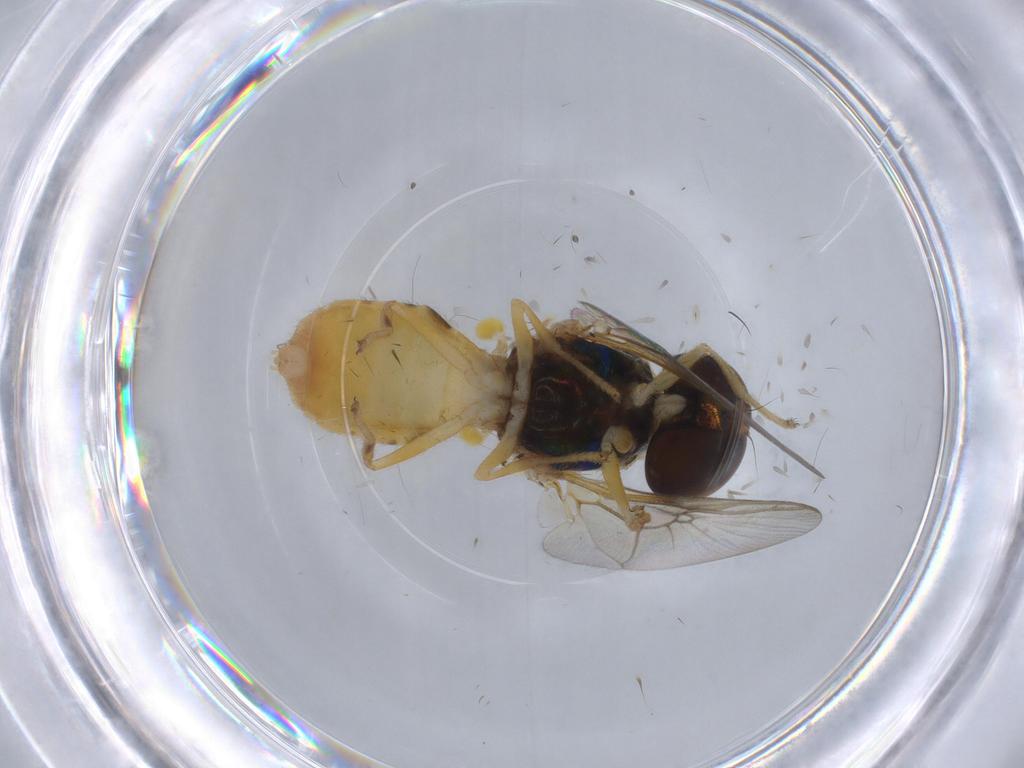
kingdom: Animalia
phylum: Arthropoda
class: Insecta
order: Diptera
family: Stratiomyidae
